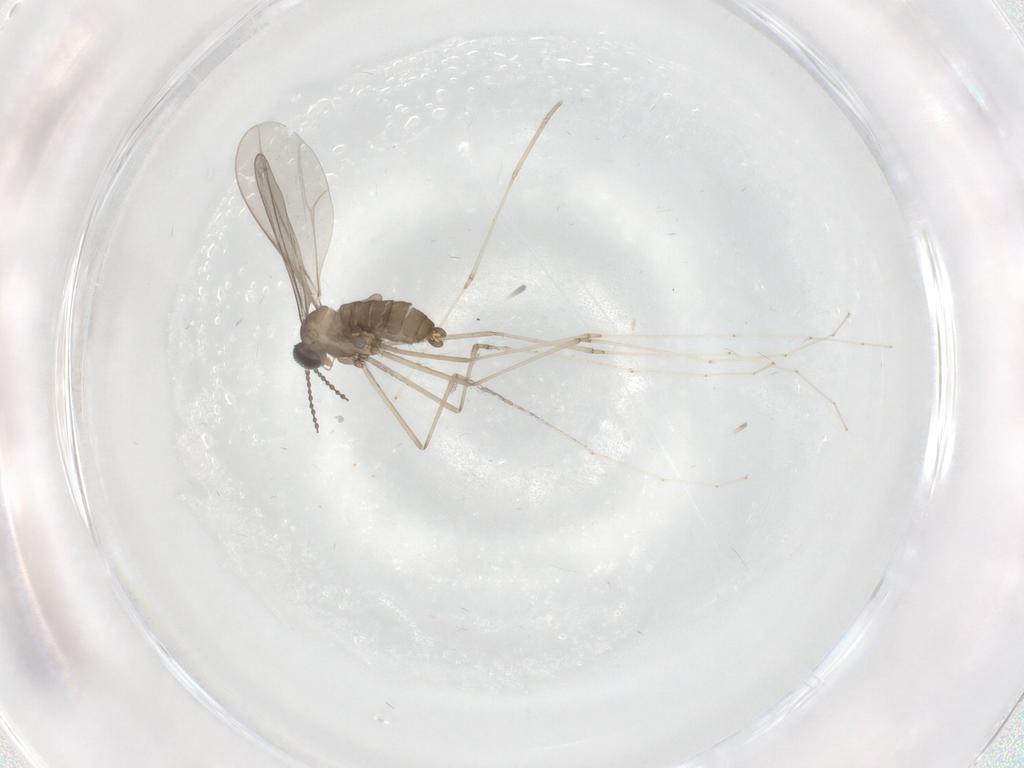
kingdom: Animalia
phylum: Arthropoda
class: Insecta
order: Diptera
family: Cecidomyiidae
